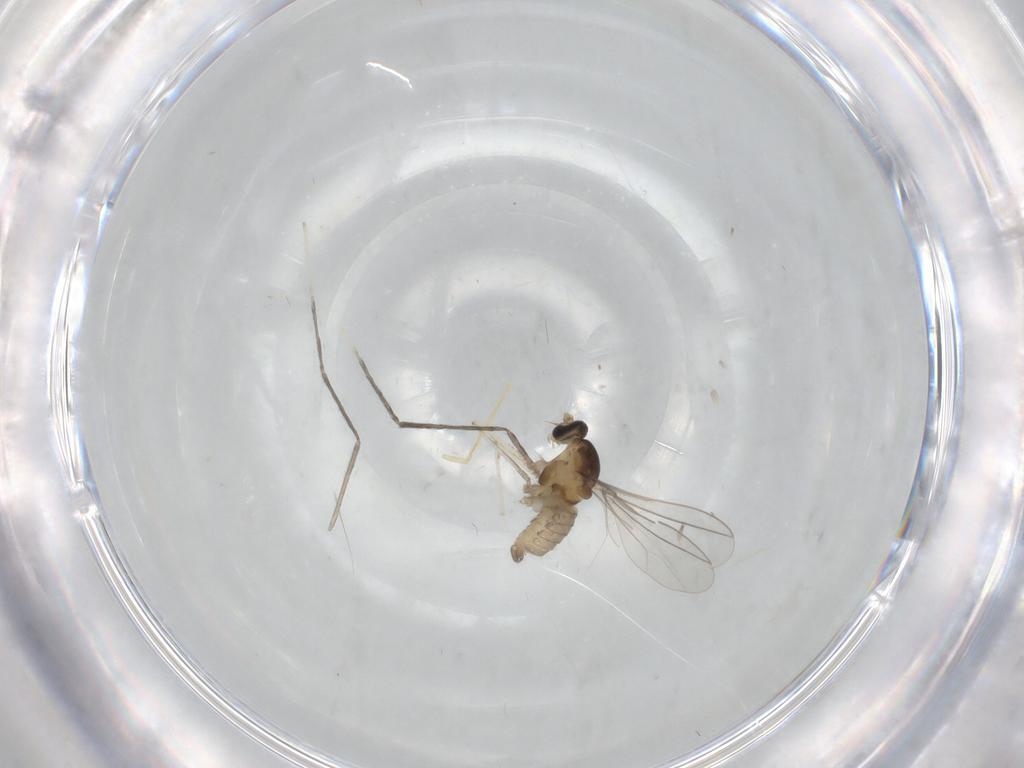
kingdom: Animalia
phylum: Arthropoda
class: Insecta
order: Diptera
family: Cecidomyiidae
